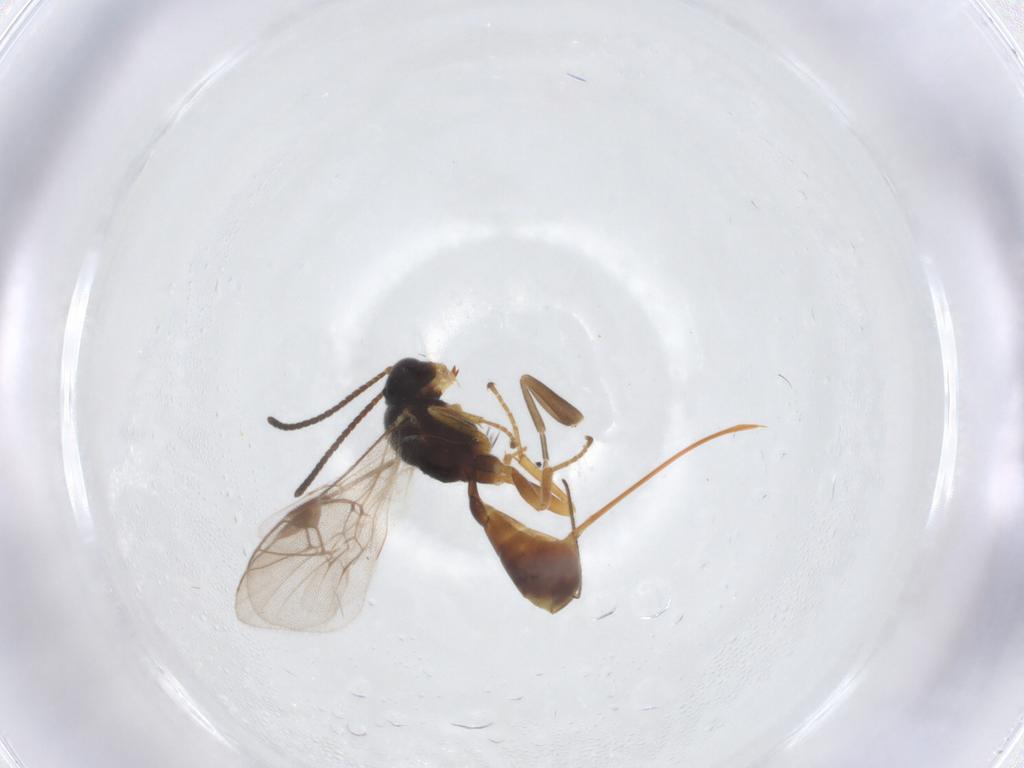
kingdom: Animalia
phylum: Arthropoda
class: Insecta
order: Hymenoptera
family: Ichneumonidae
